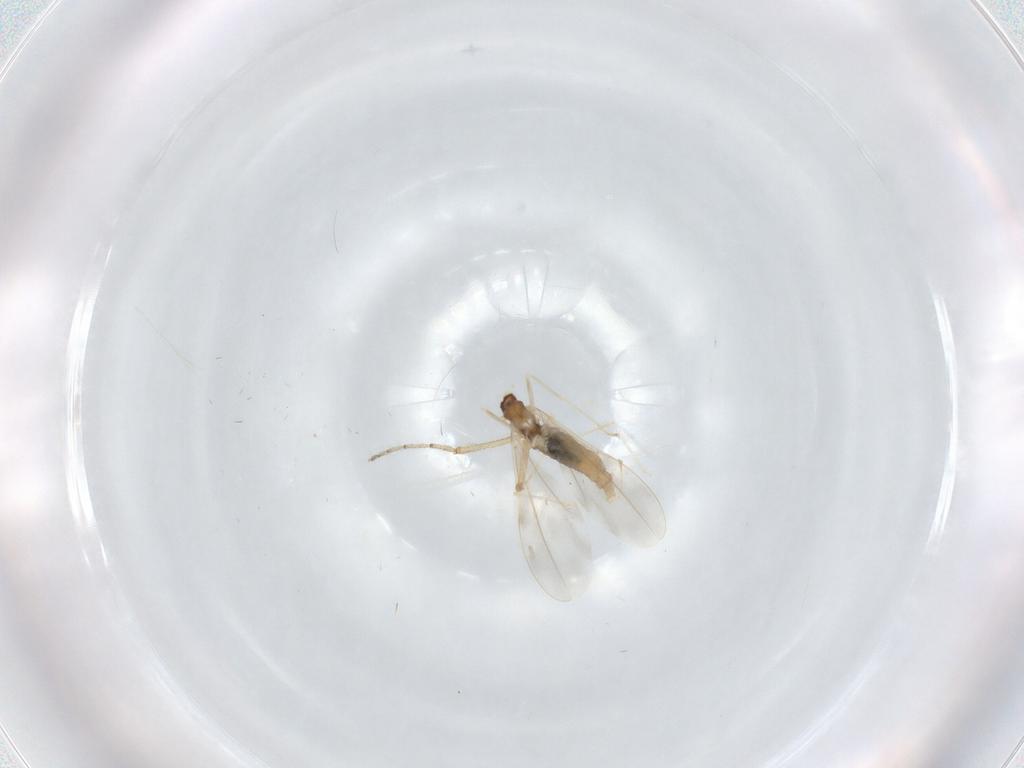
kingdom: Animalia
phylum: Arthropoda
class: Insecta
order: Diptera
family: Cecidomyiidae
